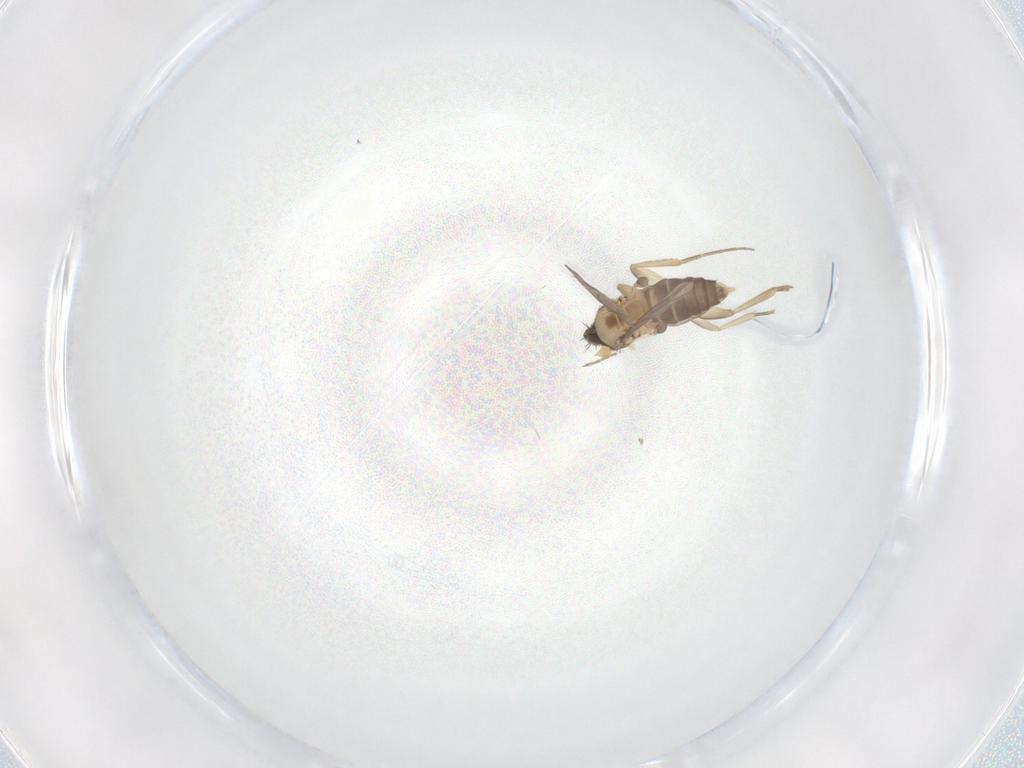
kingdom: Animalia
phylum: Arthropoda
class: Insecta
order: Diptera
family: Phoridae
